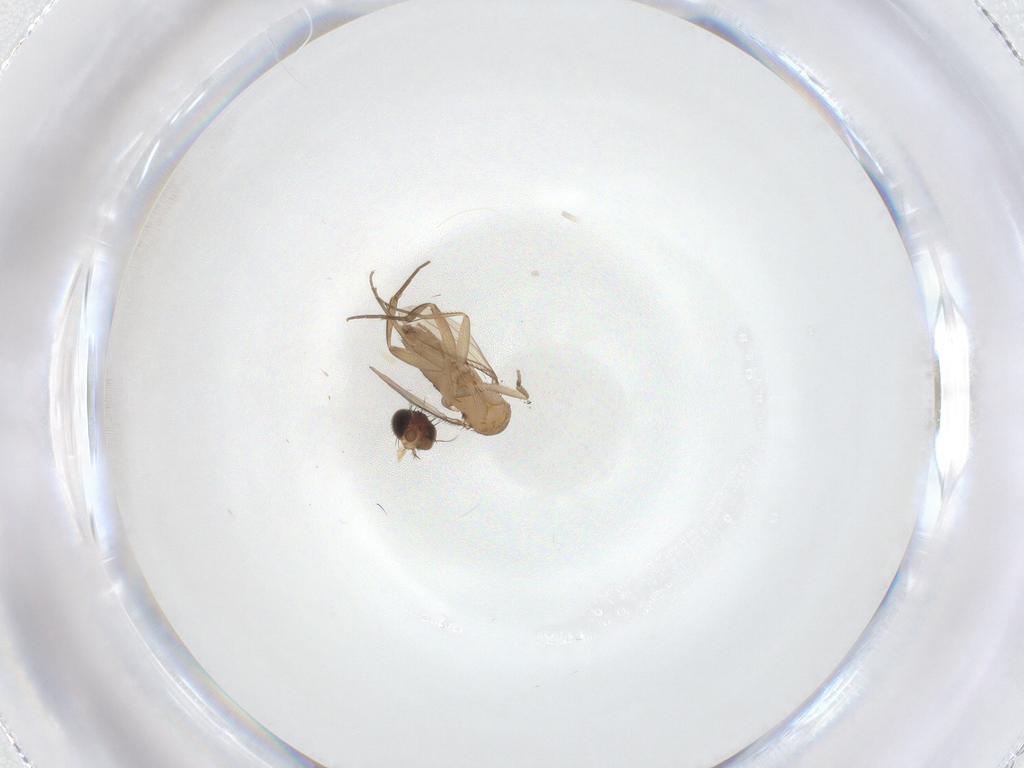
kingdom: Animalia
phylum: Arthropoda
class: Insecta
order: Diptera
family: Phoridae
